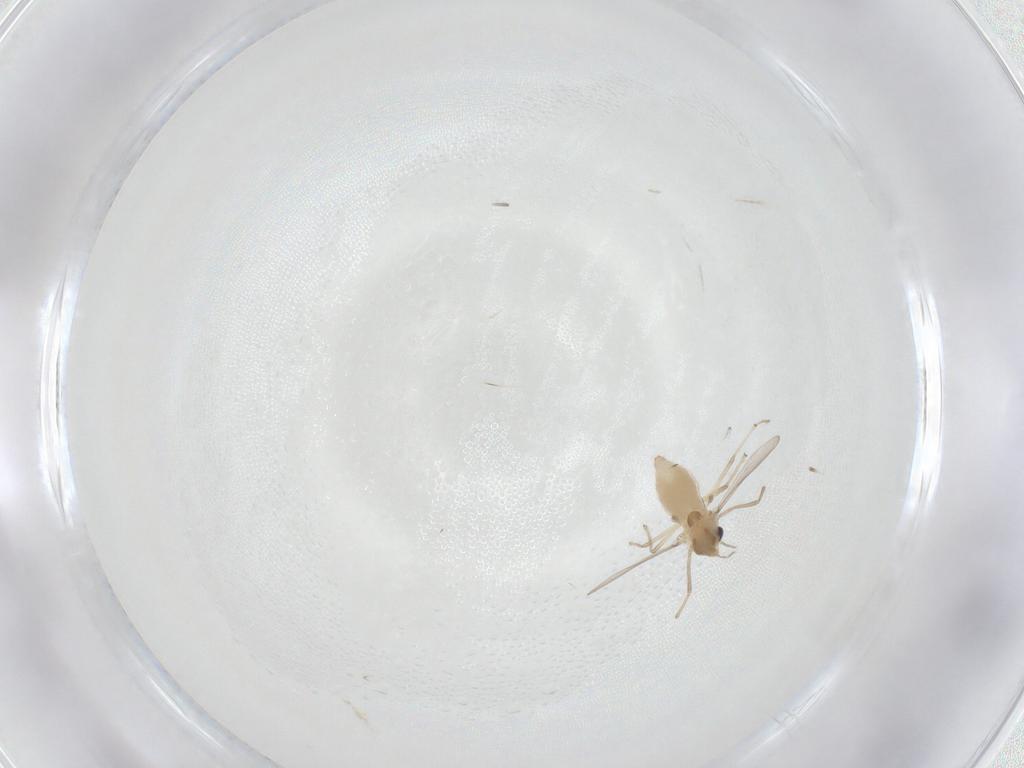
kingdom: Animalia
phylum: Arthropoda
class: Insecta
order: Diptera
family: Chironomidae
